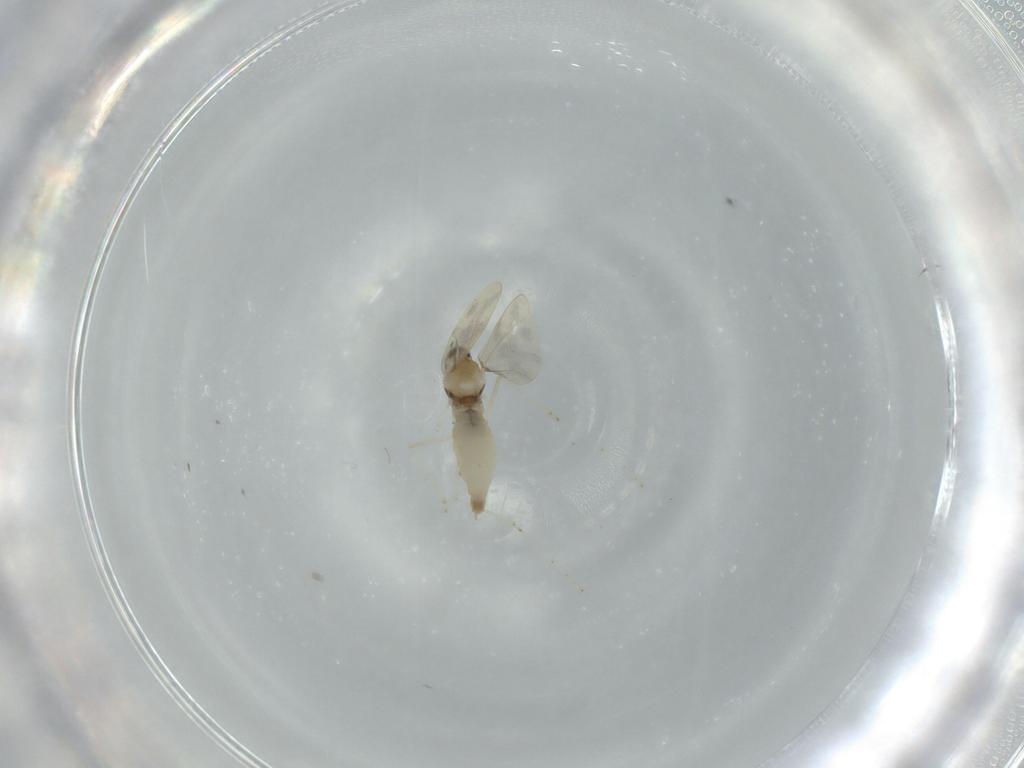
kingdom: Animalia
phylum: Arthropoda
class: Insecta
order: Diptera
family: Cecidomyiidae
